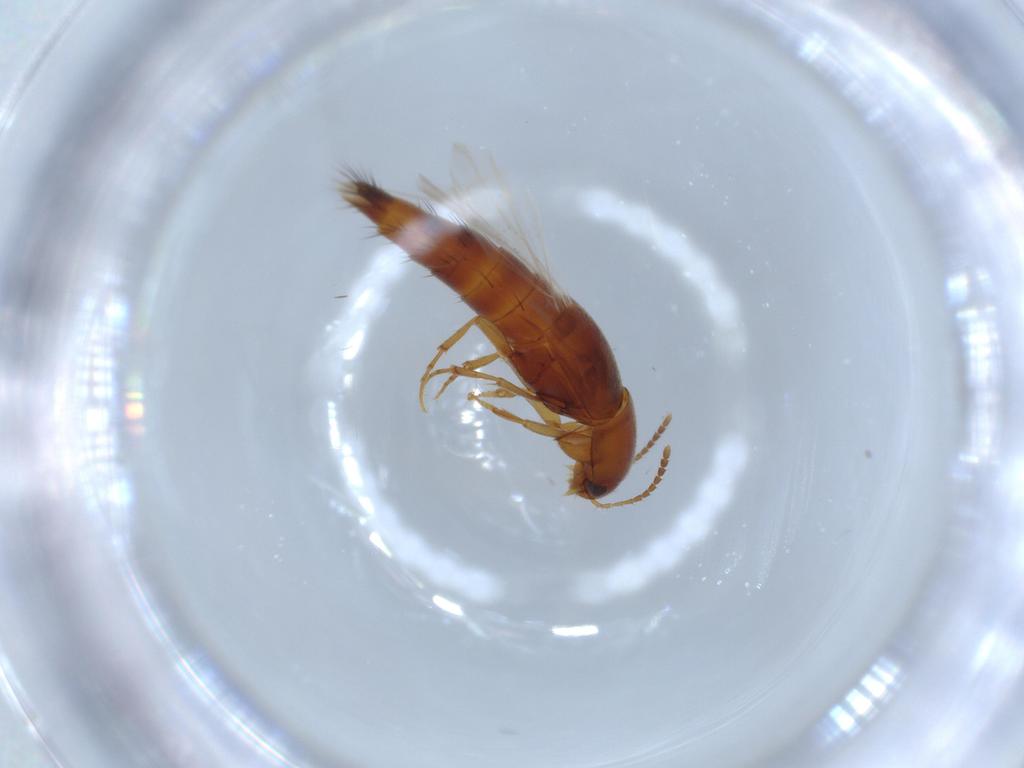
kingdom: Animalia
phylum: Arthropoda
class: Insecta
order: Coleoptera
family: Staphylinidae
